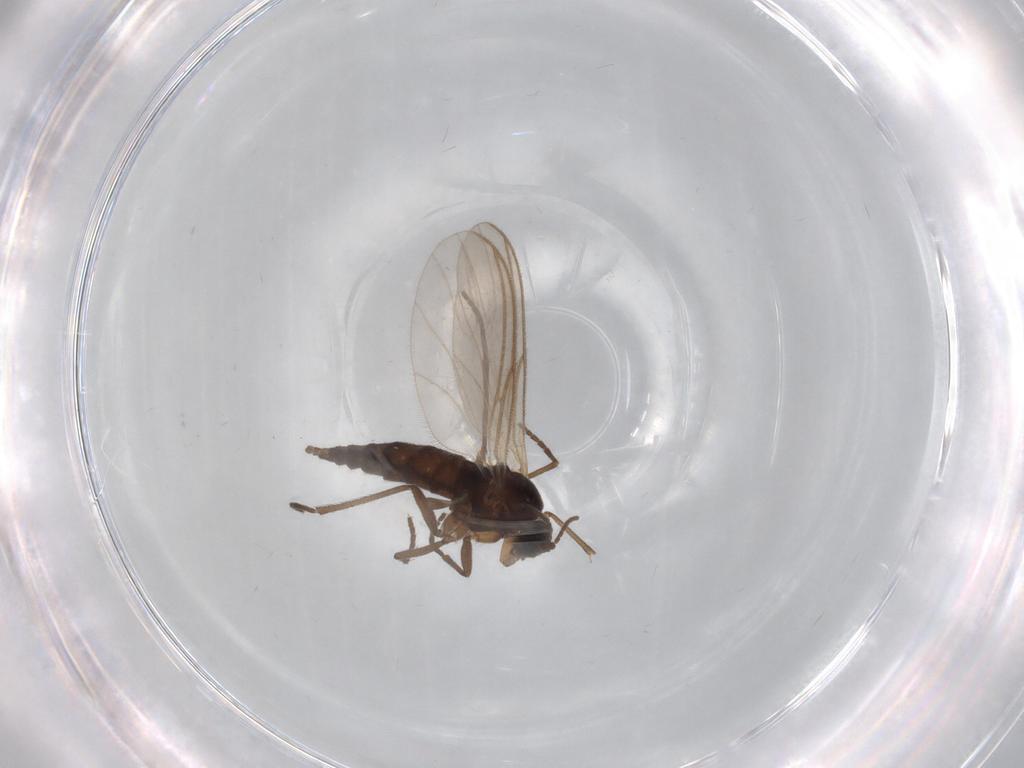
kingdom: Animalia
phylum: Arthropoda
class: Insecta
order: Diptera
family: Sciaridae
